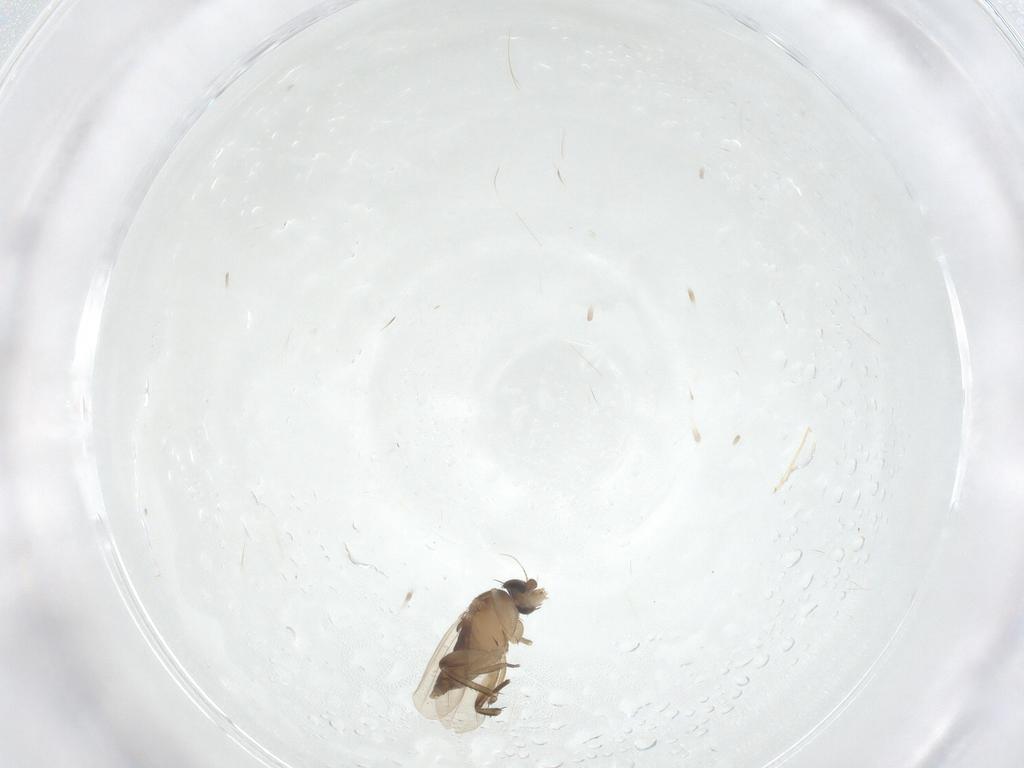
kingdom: Animalia
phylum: Arthropoda
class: Insecta
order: Diptera
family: Phoridae
